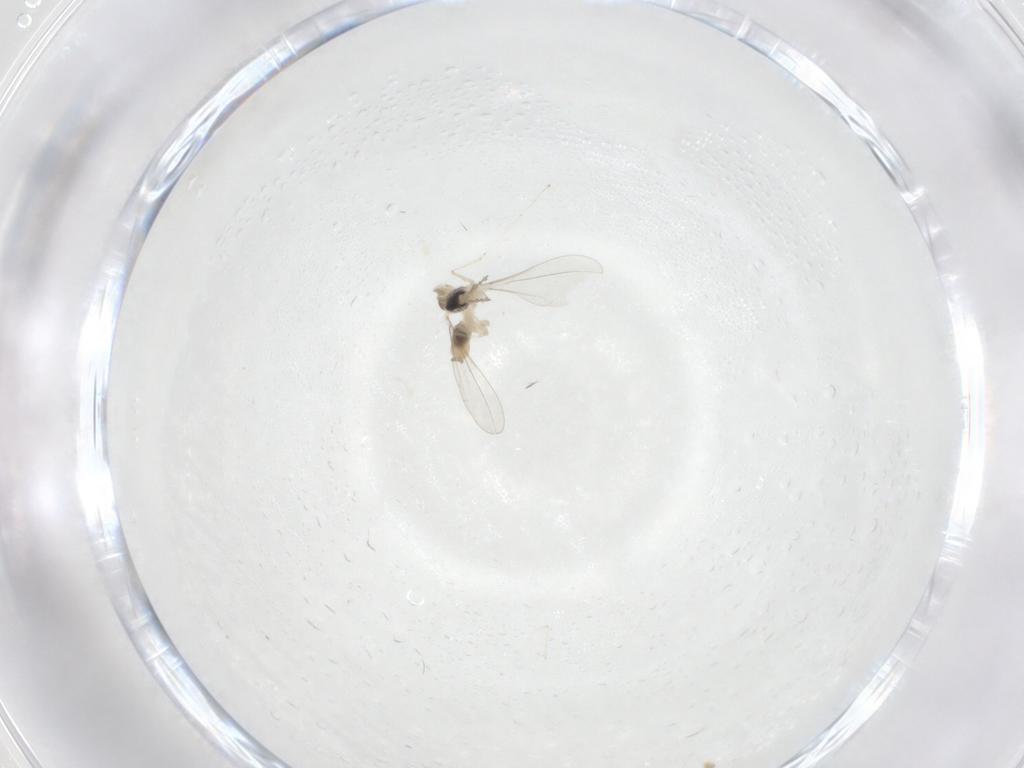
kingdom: Animalia
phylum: Arthropoda
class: Insecta
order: Diptera
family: Cecidomyiidae
